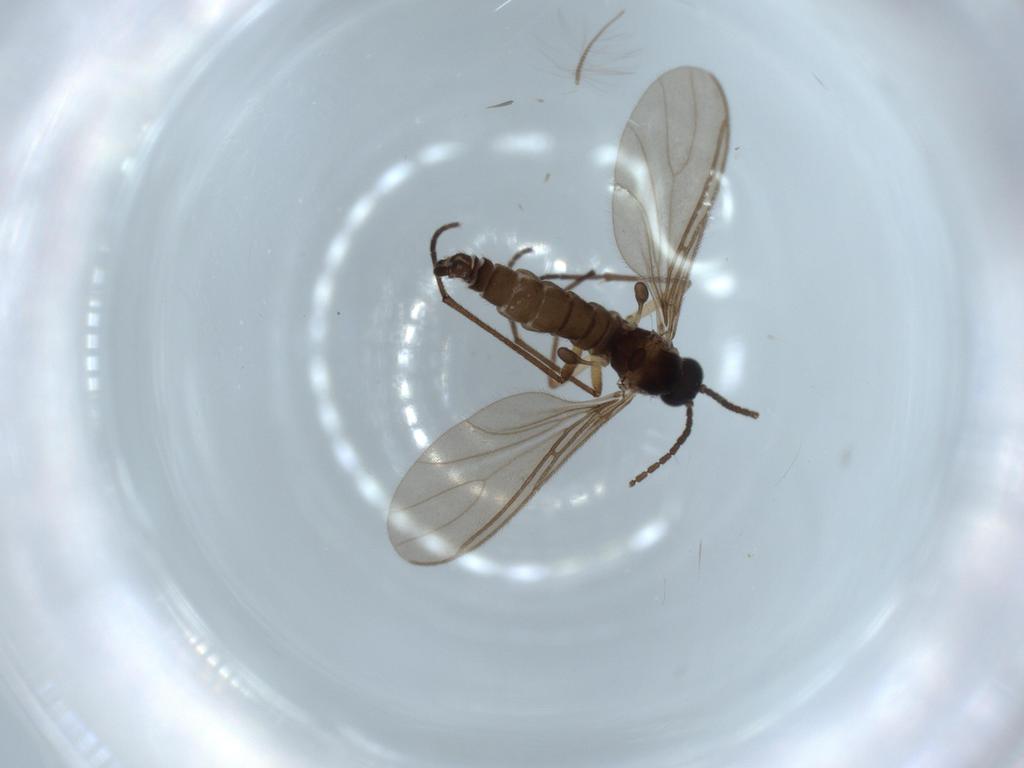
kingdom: Animalia
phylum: Arthropoda
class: Insecta
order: Diptera
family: Sciaridae
